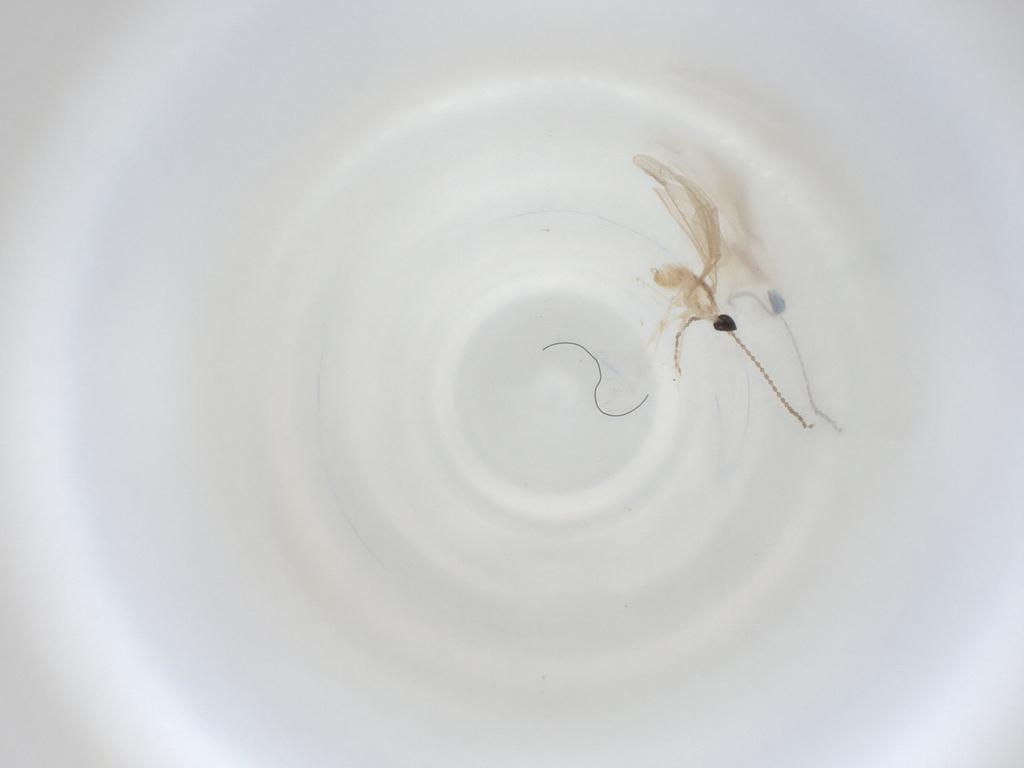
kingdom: Animalia
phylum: Arthropoda
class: Insecta
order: Diptera
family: Cecidomyiidae
